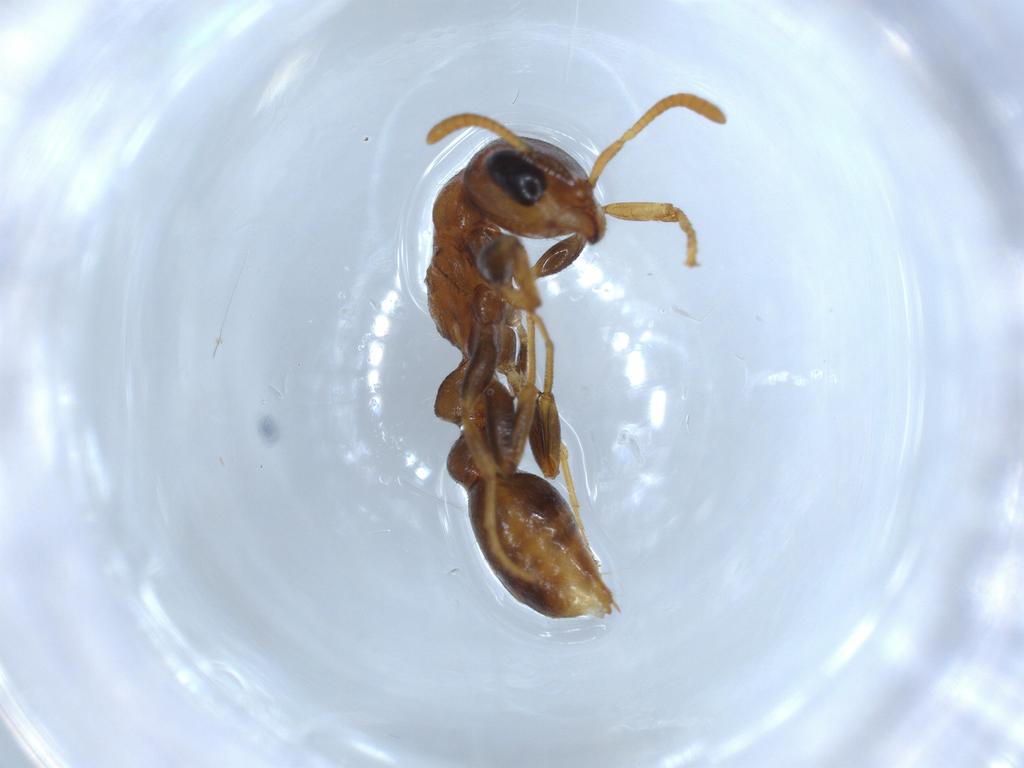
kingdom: Animalia
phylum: Arthropoda
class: Insecta
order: Hymenoptera
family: Formicidae
